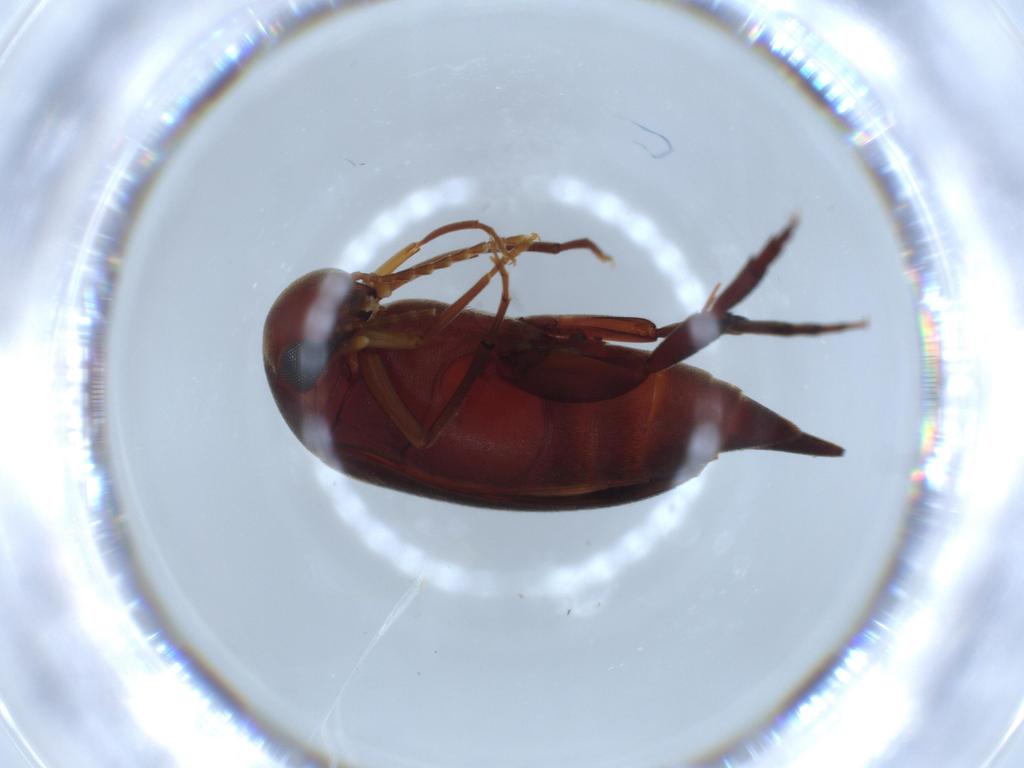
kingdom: Animalia
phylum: Arthropoda
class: Insecta
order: Coleoptera
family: Mordellidae
